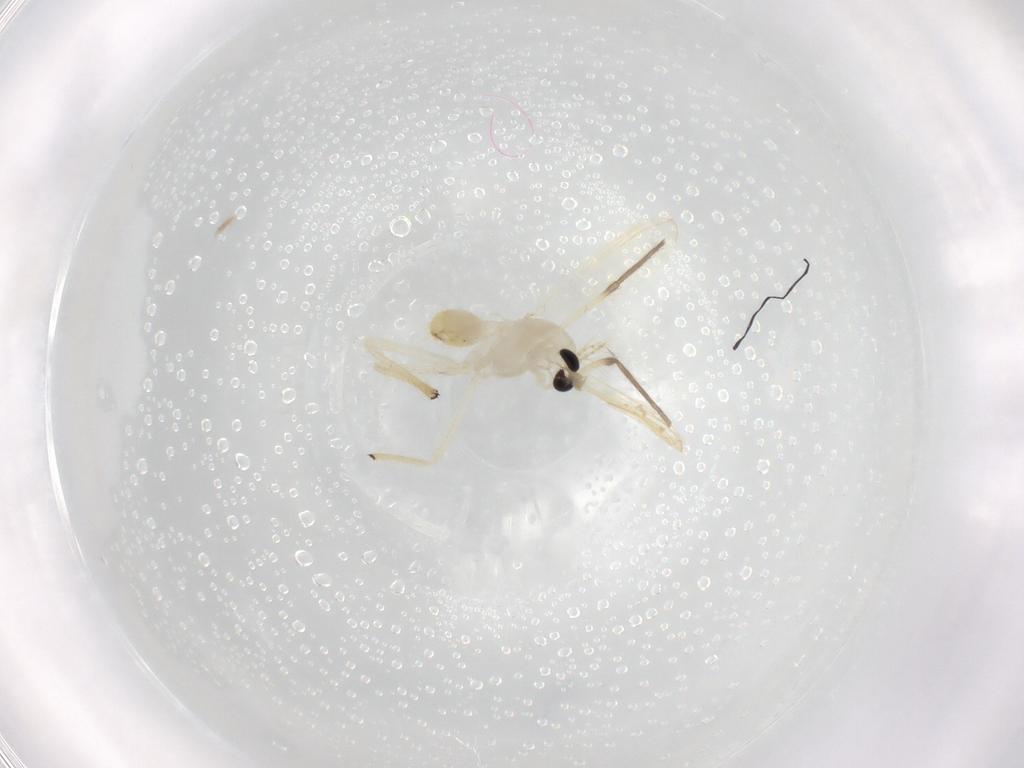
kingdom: Animalia
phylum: Arthropoda
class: Insecta
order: Diptera
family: Chironomidae
